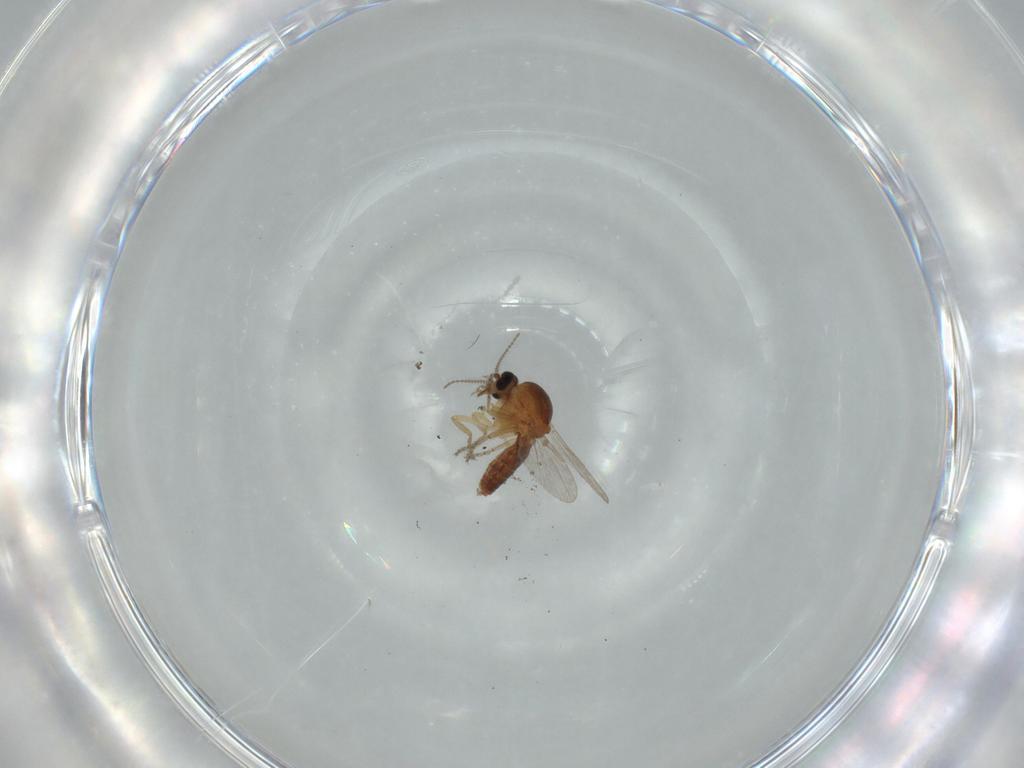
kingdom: Animalia
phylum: Arthropoda
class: Insecta
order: Diptera
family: Ceratopogonidae
